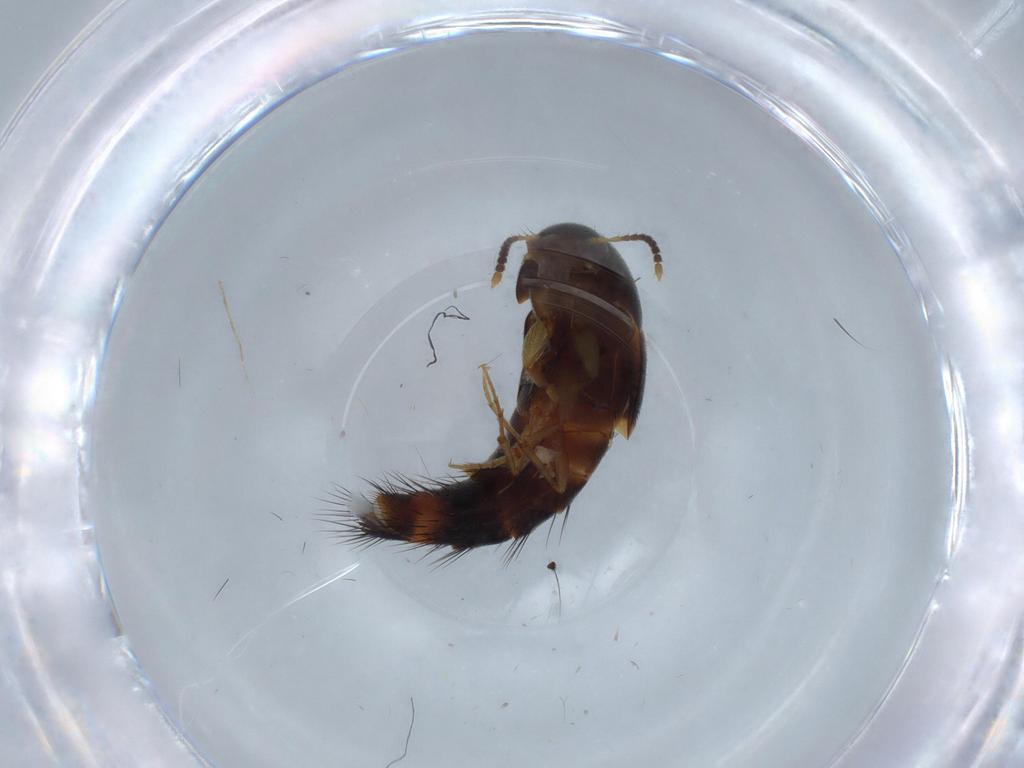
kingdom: Animalia
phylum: Arthropoda
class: Insecta
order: Coleoptera
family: Staphylinidae
